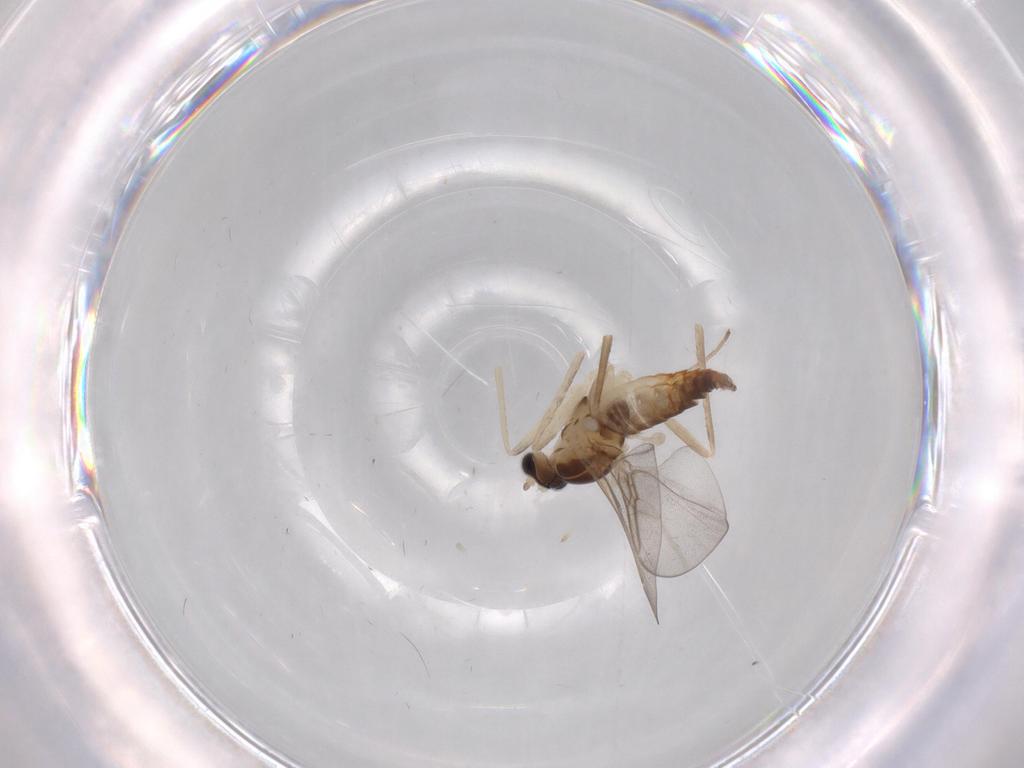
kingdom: Animalia
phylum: Arthropoda
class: Insecta
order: Diptera
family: Cecidomyiidae
